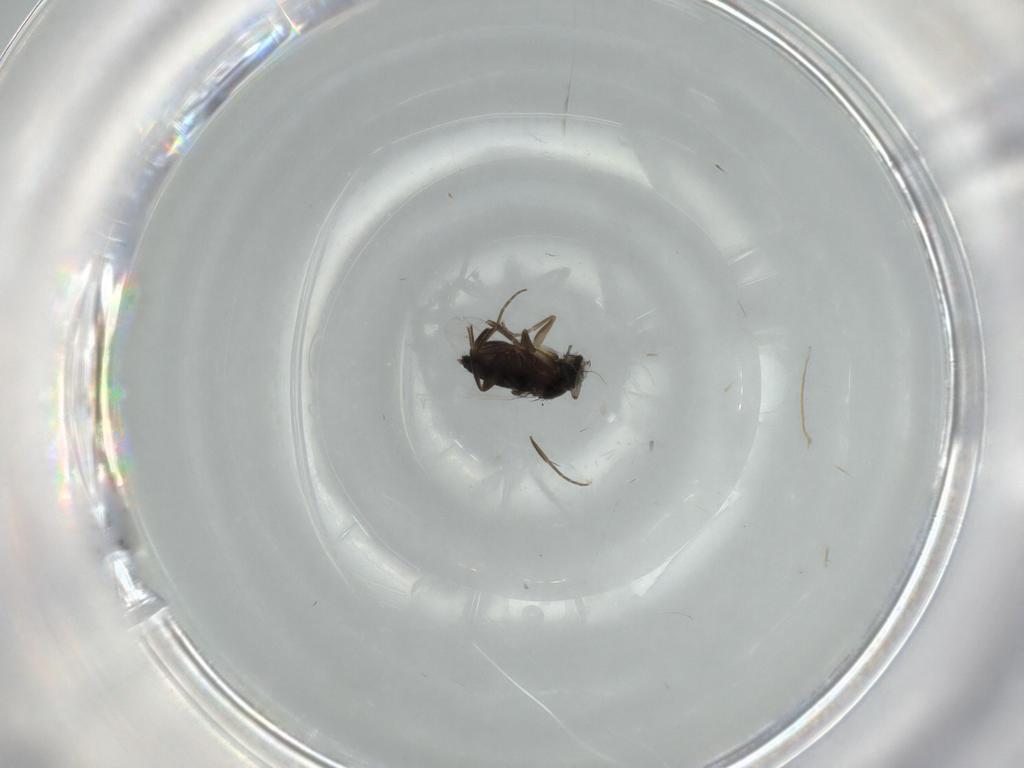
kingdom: Animalia
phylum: Arthropoda
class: Insecta
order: Diptera
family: Phoridae
